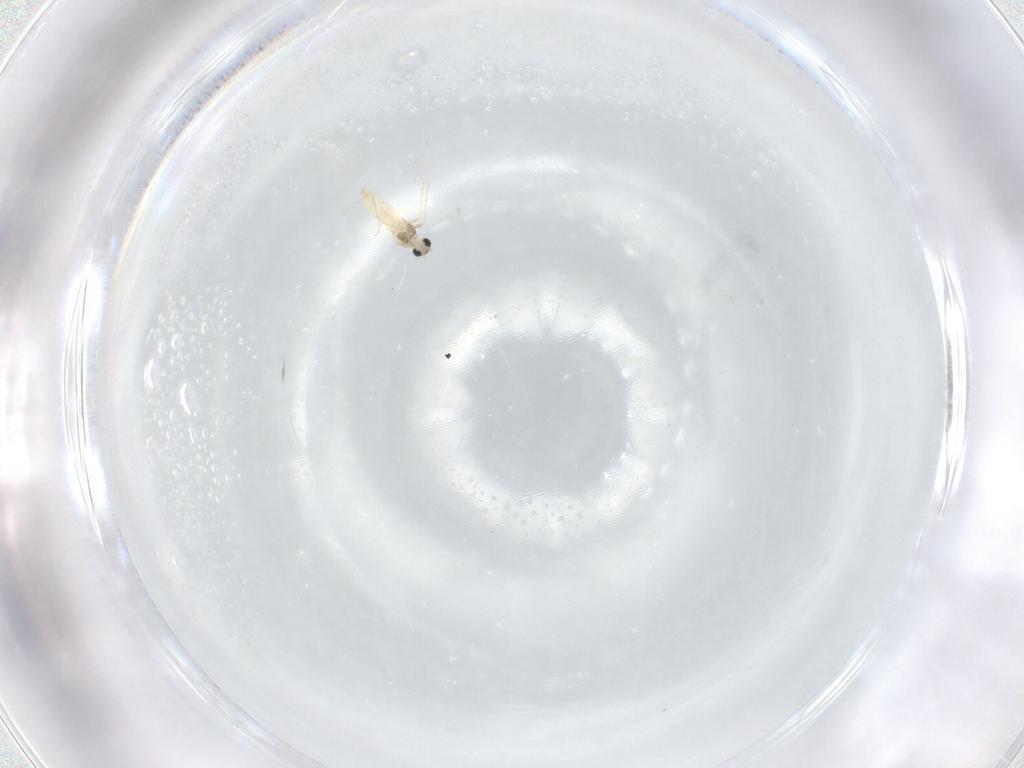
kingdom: Animalia
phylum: Arthropoda
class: Insecta
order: Diptera
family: Cecidomyiidae
